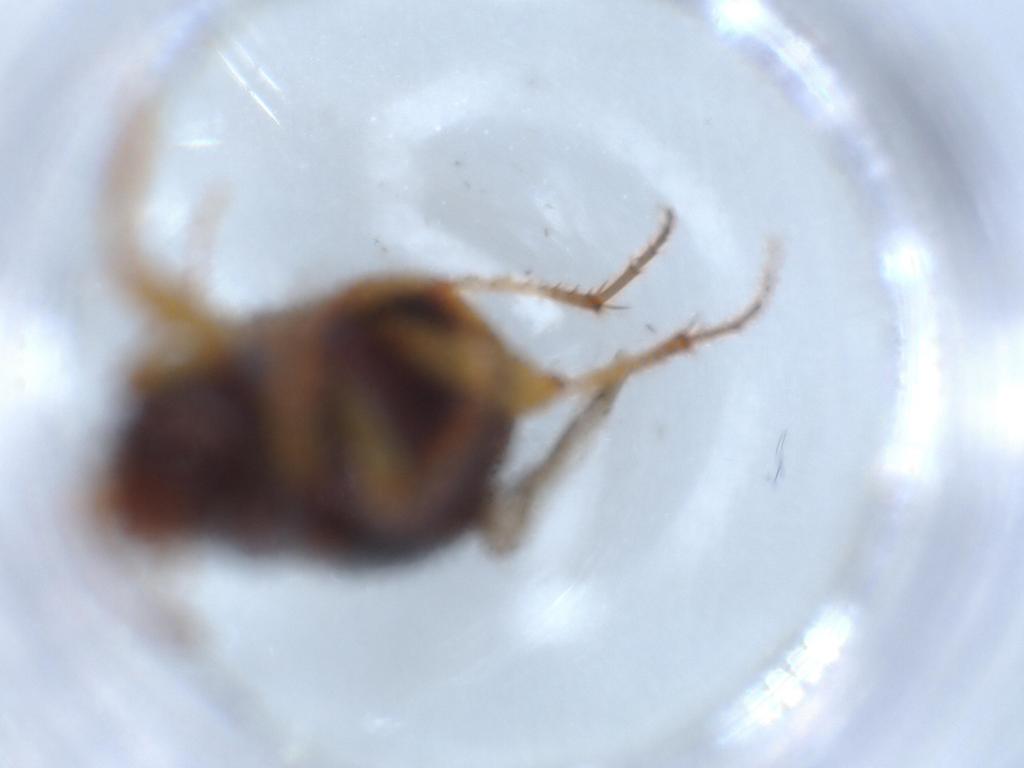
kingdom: Animalia
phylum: Arthropoda
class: Insecta
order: Coleoptera
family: Carabidae
